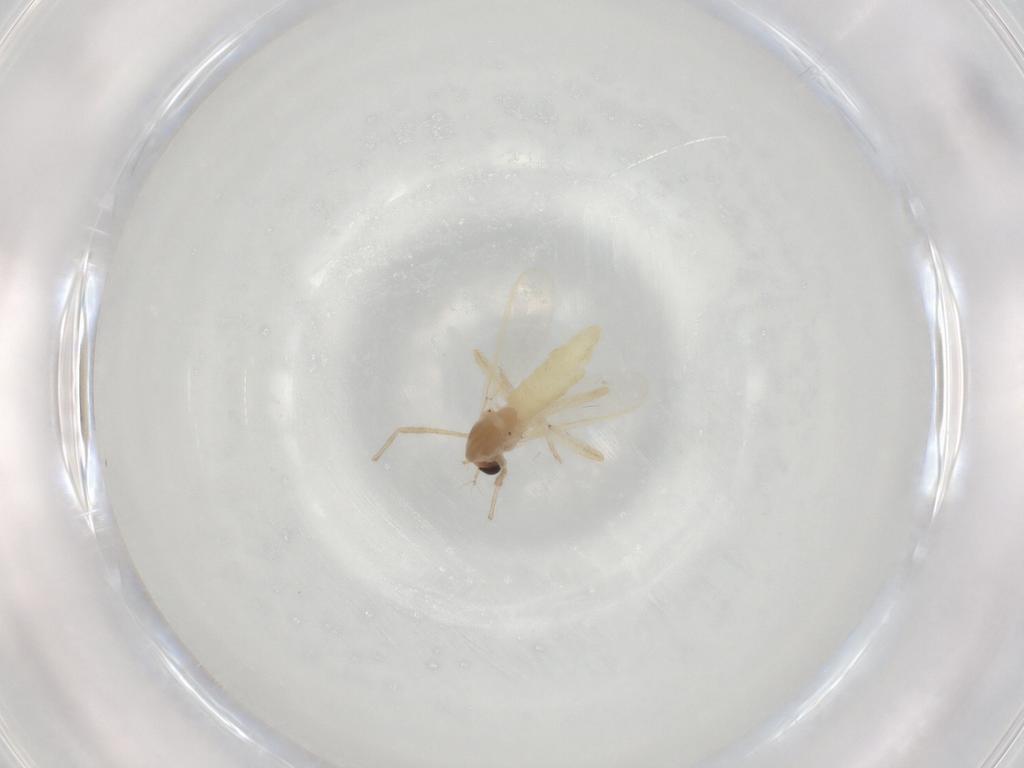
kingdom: Animalia
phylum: Arthropoda
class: Insecta
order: Diptera
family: Chironomidae
